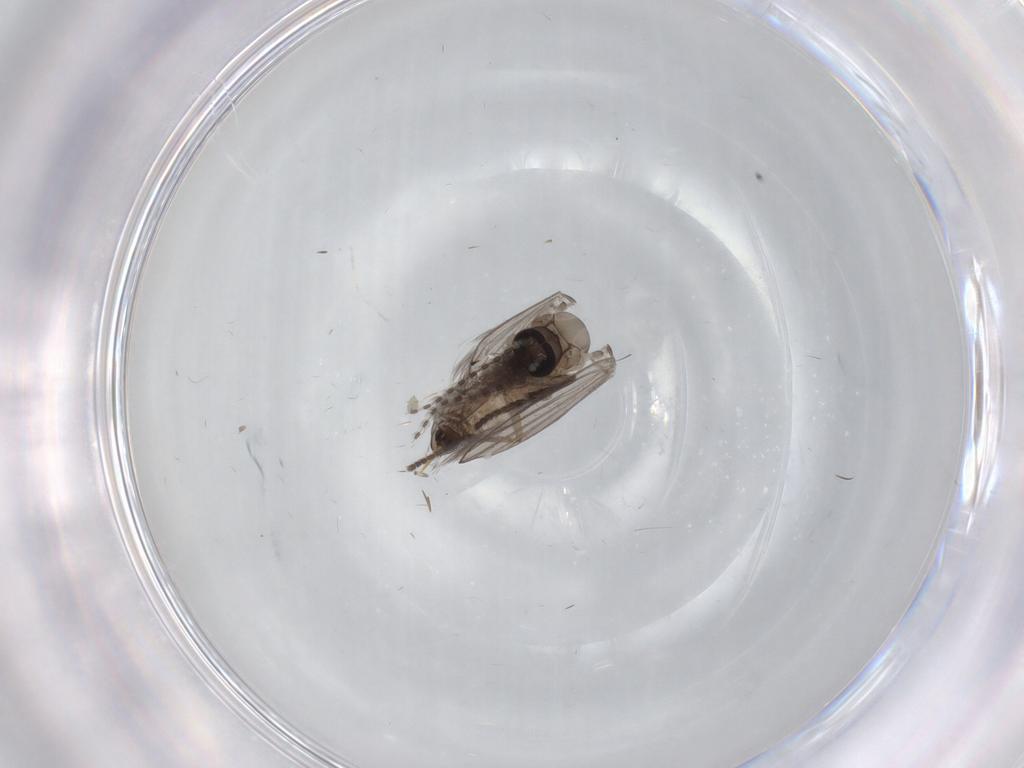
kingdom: Animalia
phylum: Arthropoda
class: Insecta
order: Diptera
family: Psychodidae
